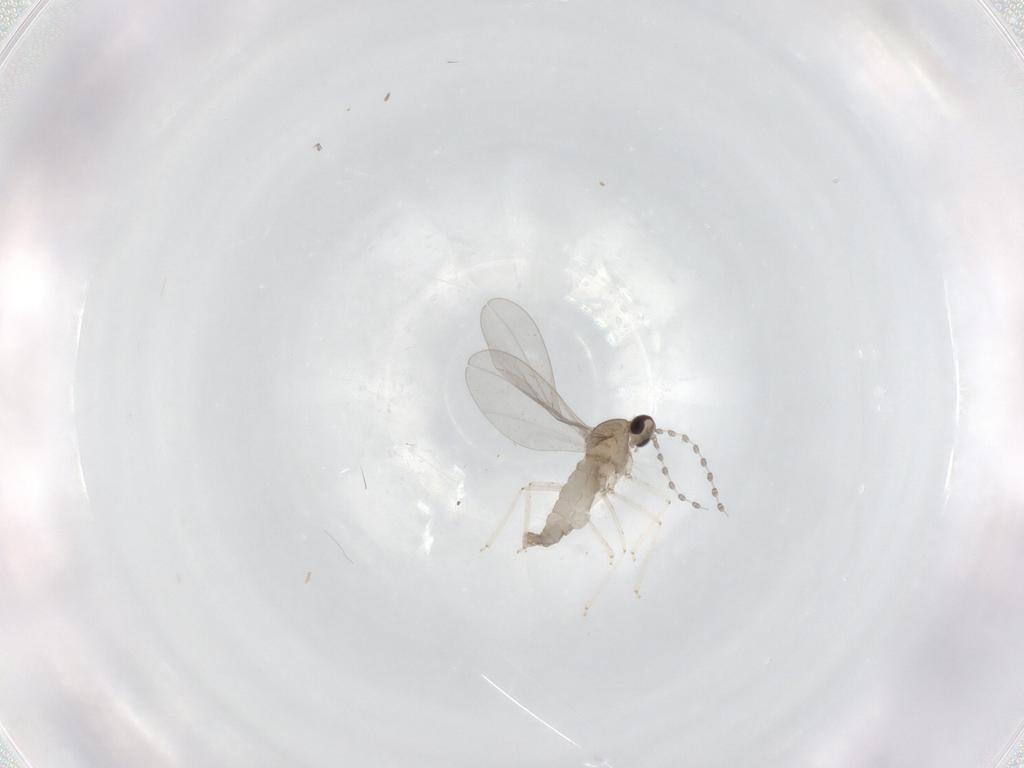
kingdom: Animalia
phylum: Arthropoda
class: Insecta
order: Diptera
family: Cecidomyiidae
